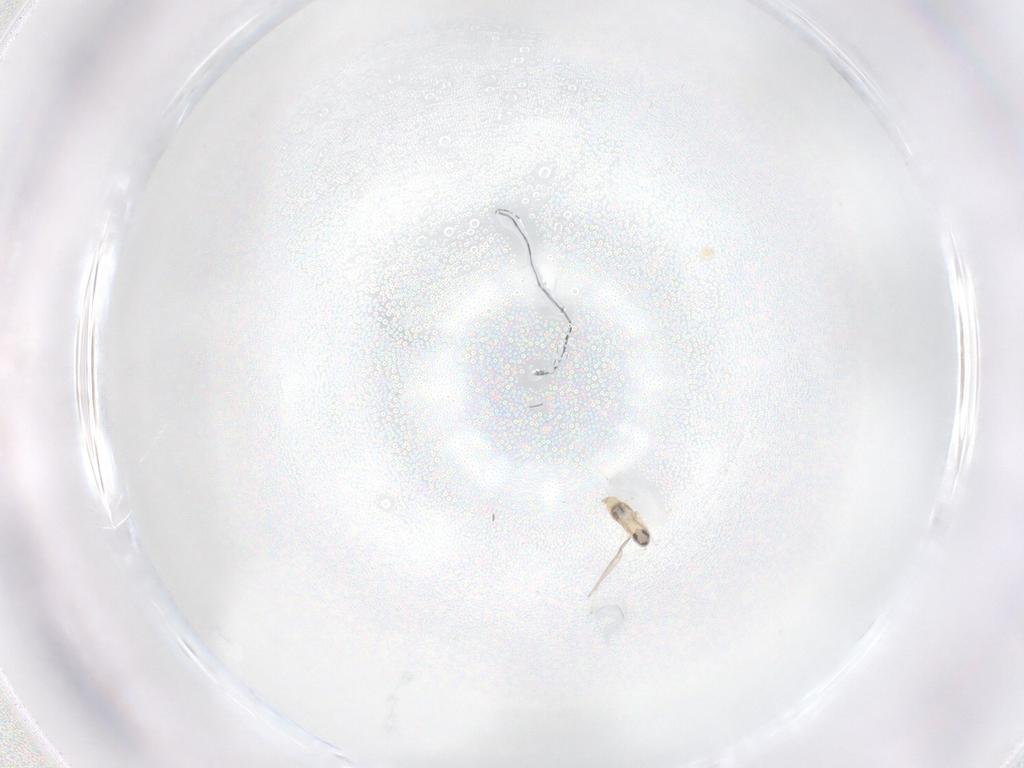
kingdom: Animalia
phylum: Arthropoda
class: Insecta
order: Diptera
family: Cecidomyiidae
